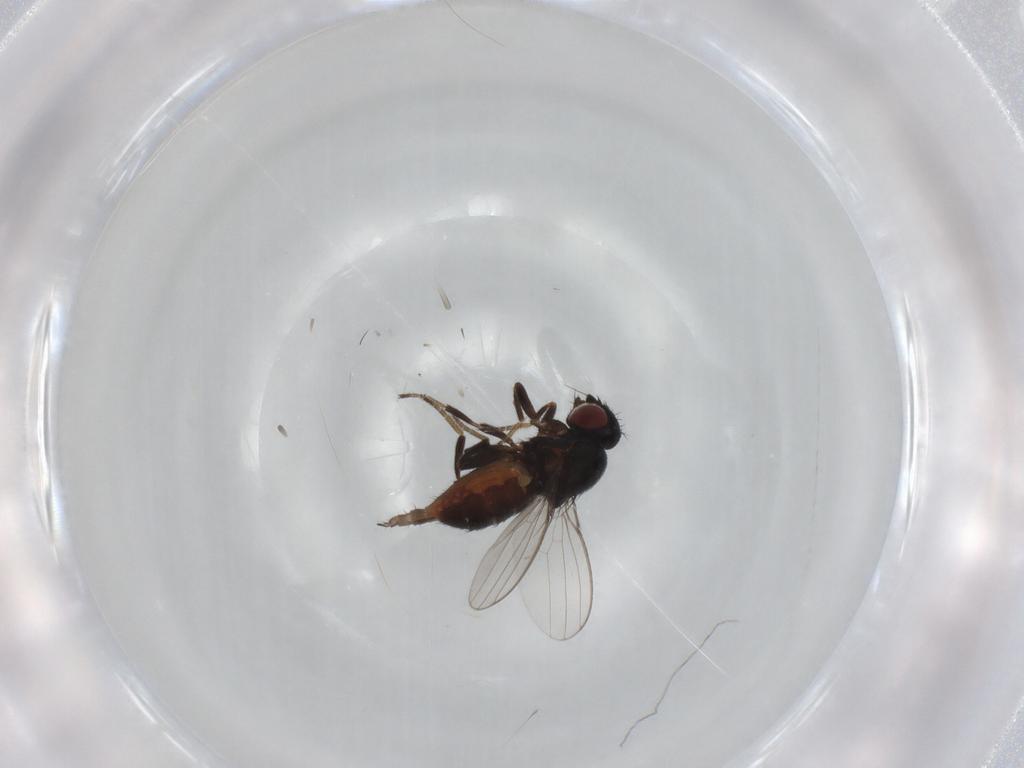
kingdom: Animalia
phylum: Arthropoda
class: Insecta
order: Diptera
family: Milichiidae
